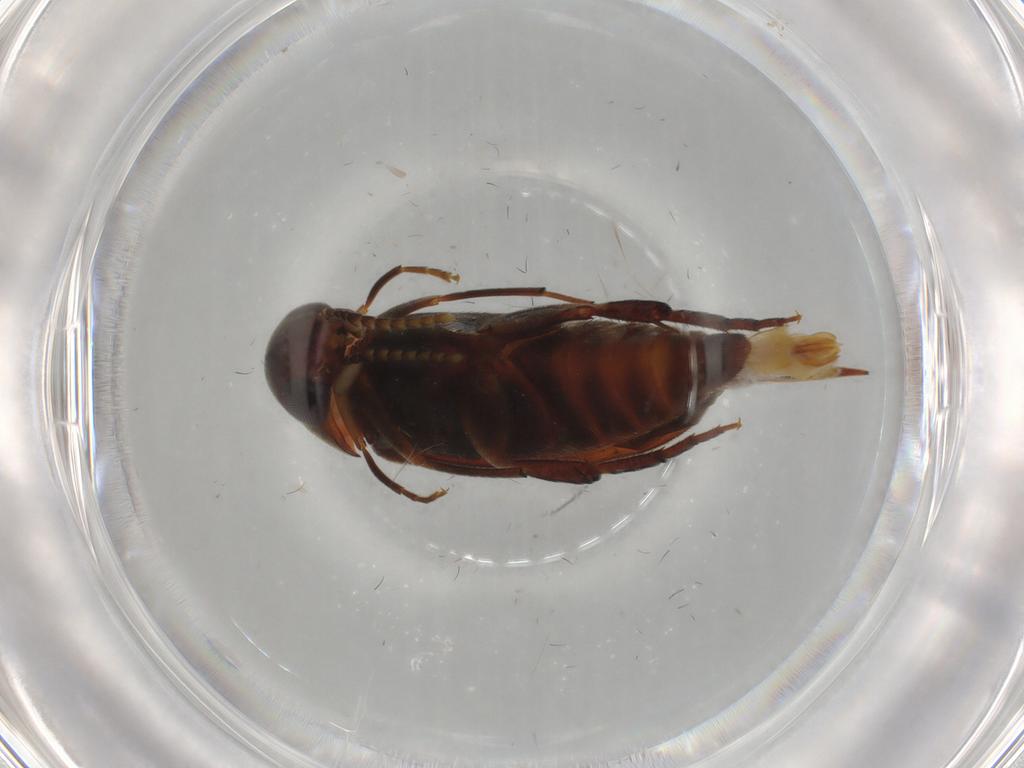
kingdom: Animalia
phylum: Arthropoda
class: Insecta
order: Coleoptera
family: Mordellidae
